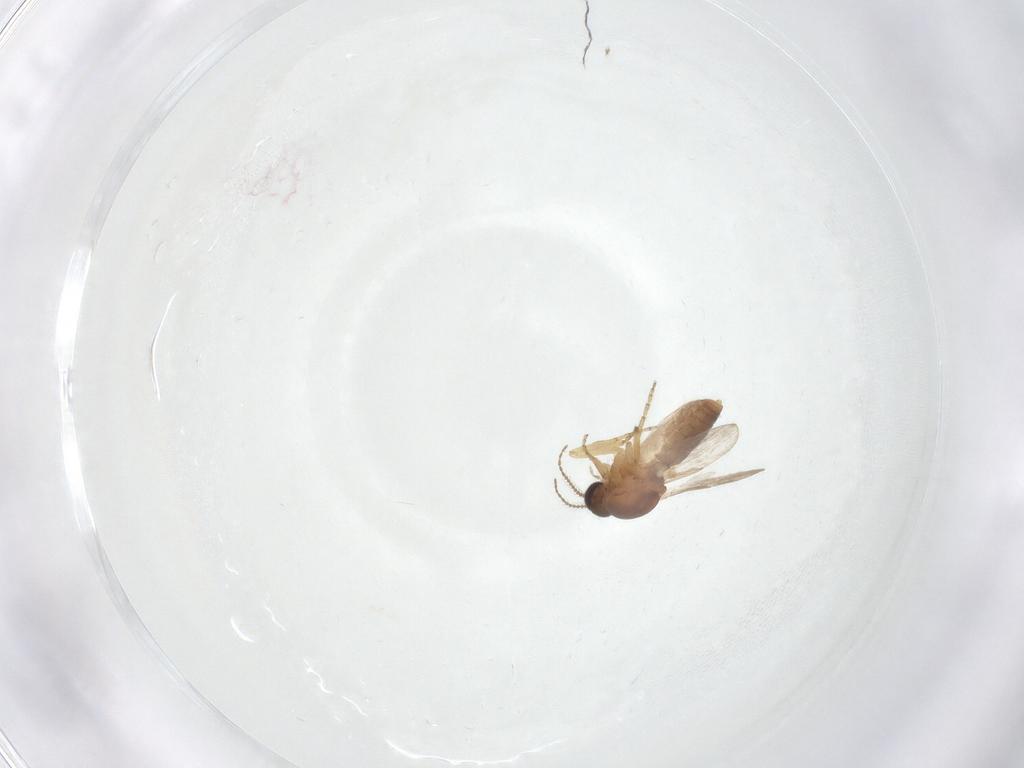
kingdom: Animalia
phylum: Arthropoda
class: Insecta
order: Diptera
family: Ceratopogonidae
